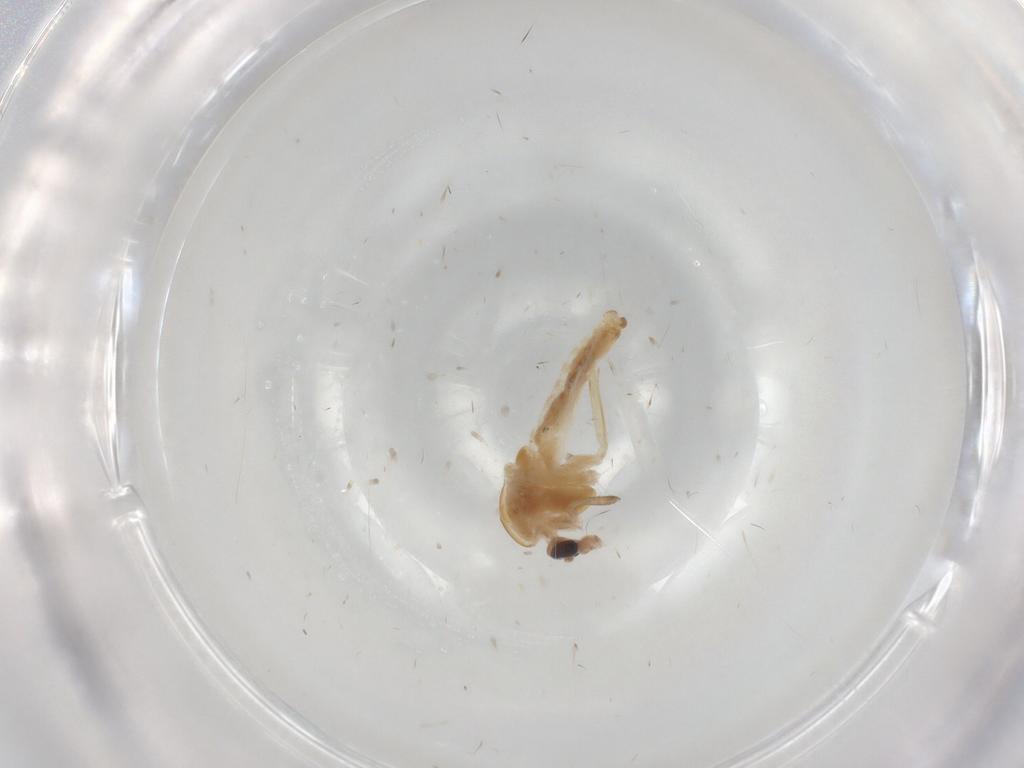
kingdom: Animalia
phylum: Arthropoda
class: Insecta
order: Diptera
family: Chironomidae
